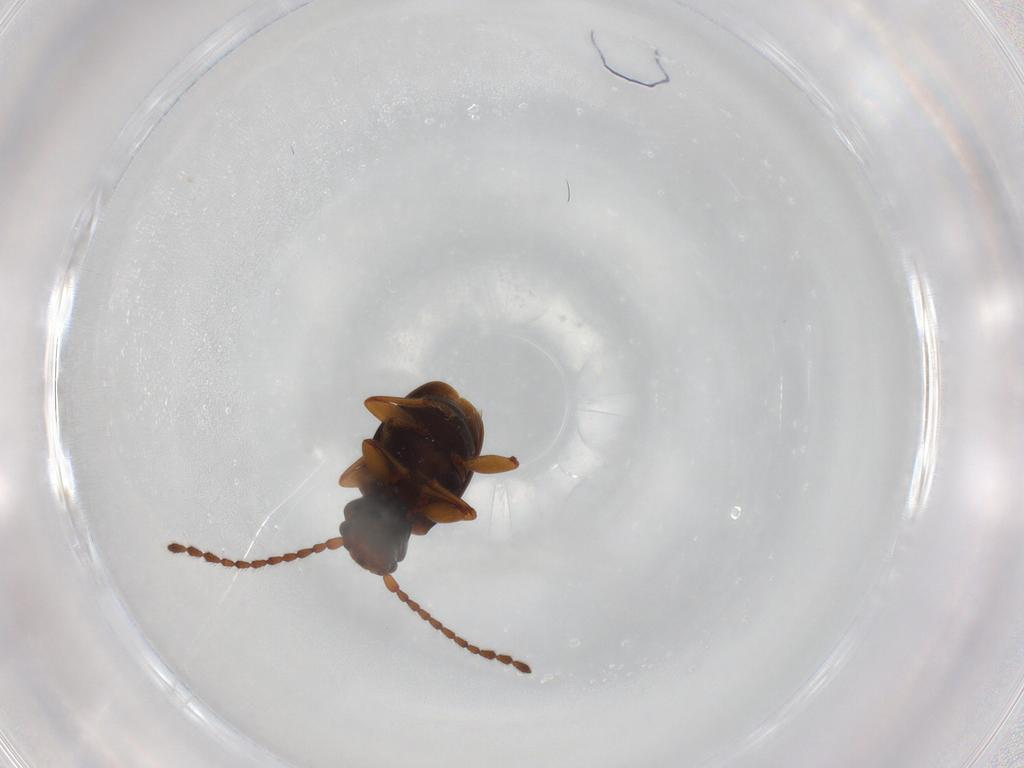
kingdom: Animalia
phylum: Arthropoda
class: Insecta
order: Coleoptera
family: Laemophloeidae
